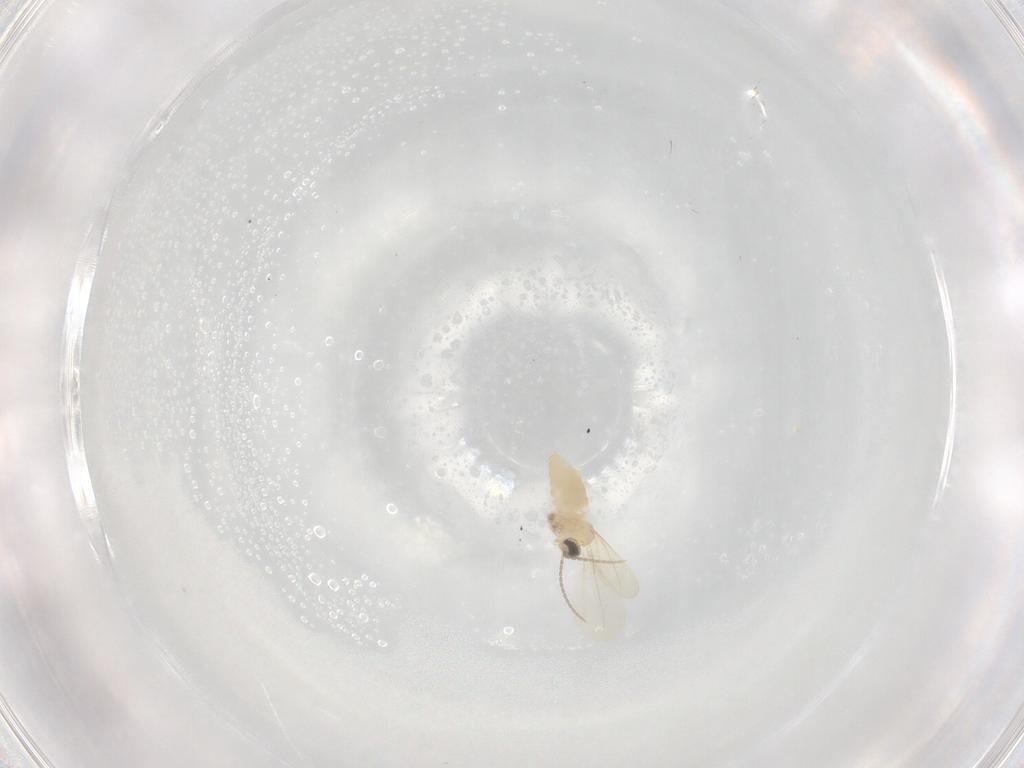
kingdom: Animalia
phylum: Arthropoda
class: Insecta
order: Diptera
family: Cecidomyiidae
